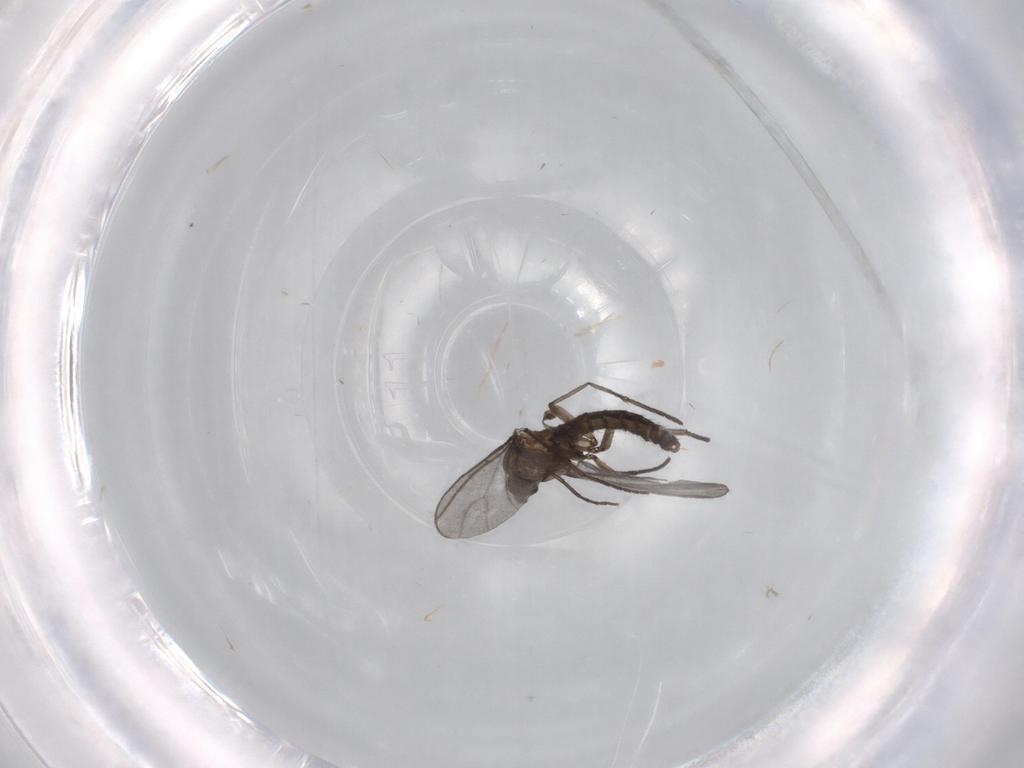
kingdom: Animalia
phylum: Arthropoda
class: Insecta
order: Diptera
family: Sciaridae
